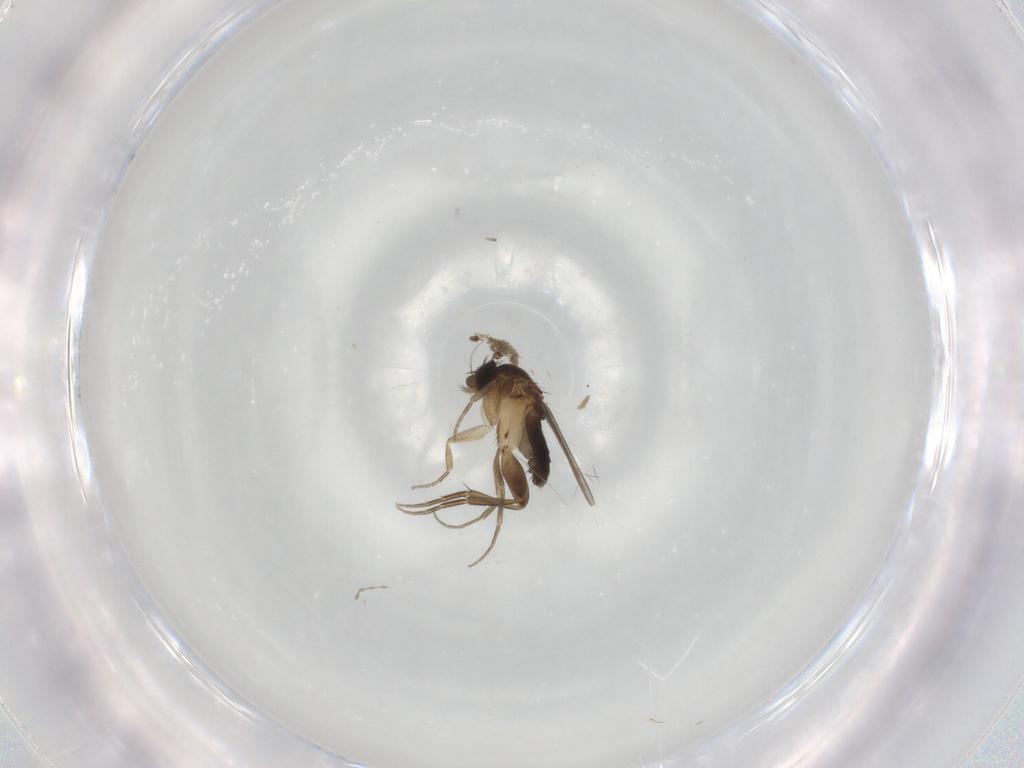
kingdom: Animalia
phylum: Arthropoda
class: Insecta
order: Diptera
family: Phoridae
